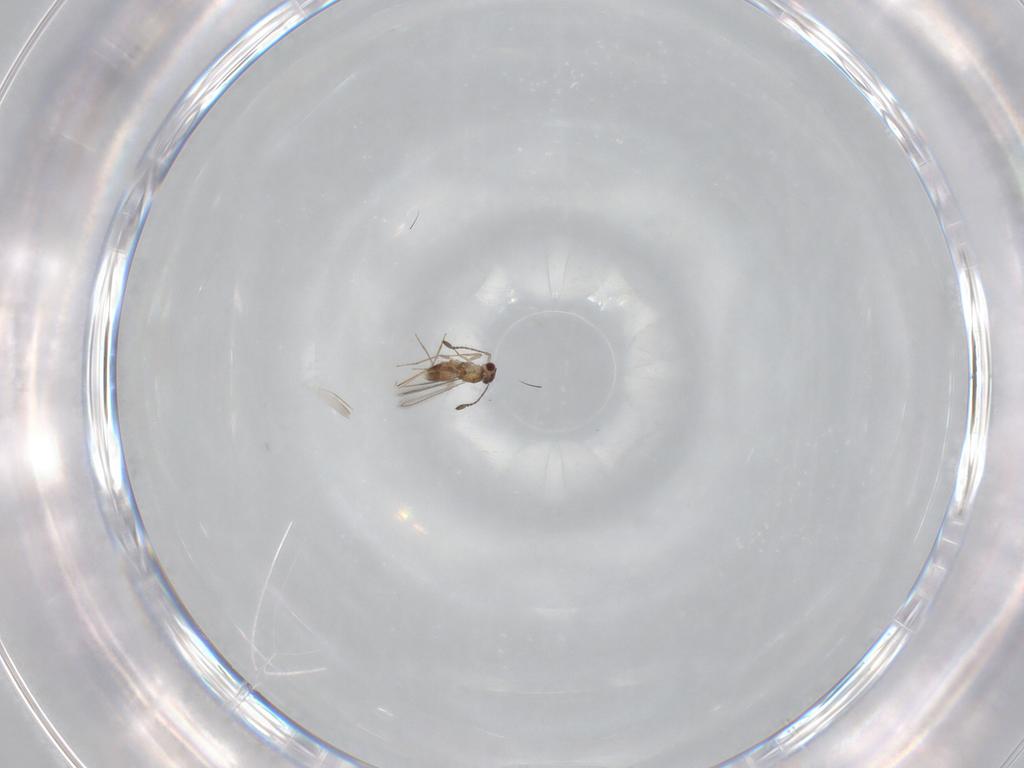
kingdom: Animalia
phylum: Arthropoda
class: Insecta
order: Hymenoptera
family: Mymaridae
